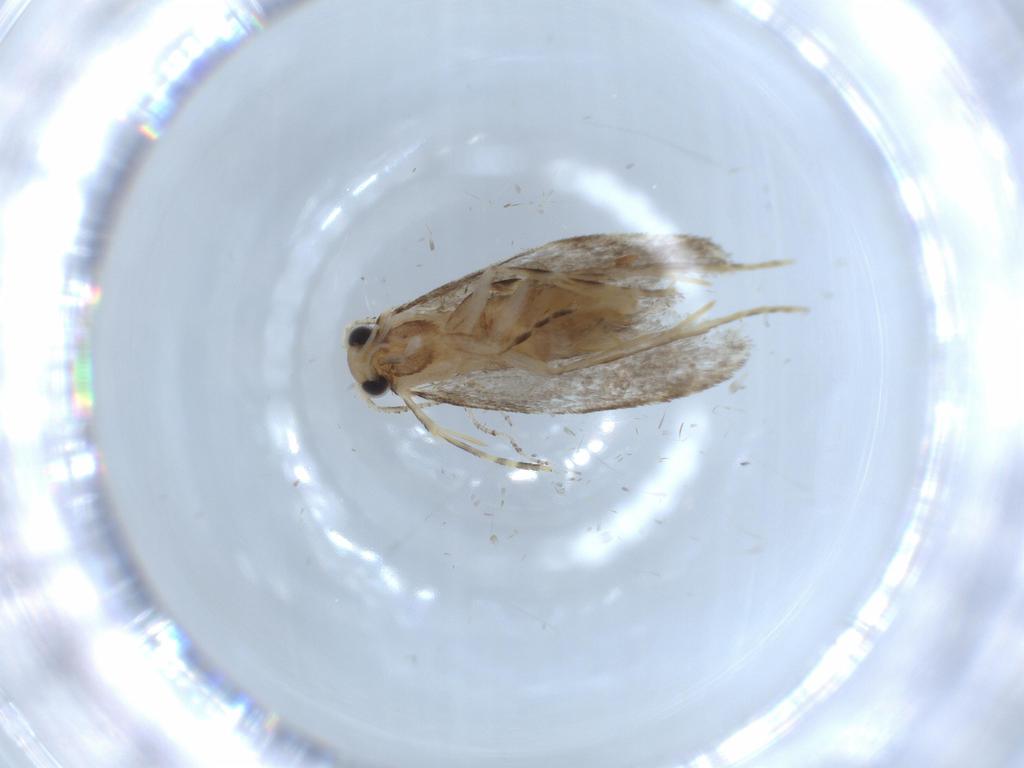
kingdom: Animalia
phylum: Arthropoda
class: Insecta
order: Lepidoptera
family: Tineidae
